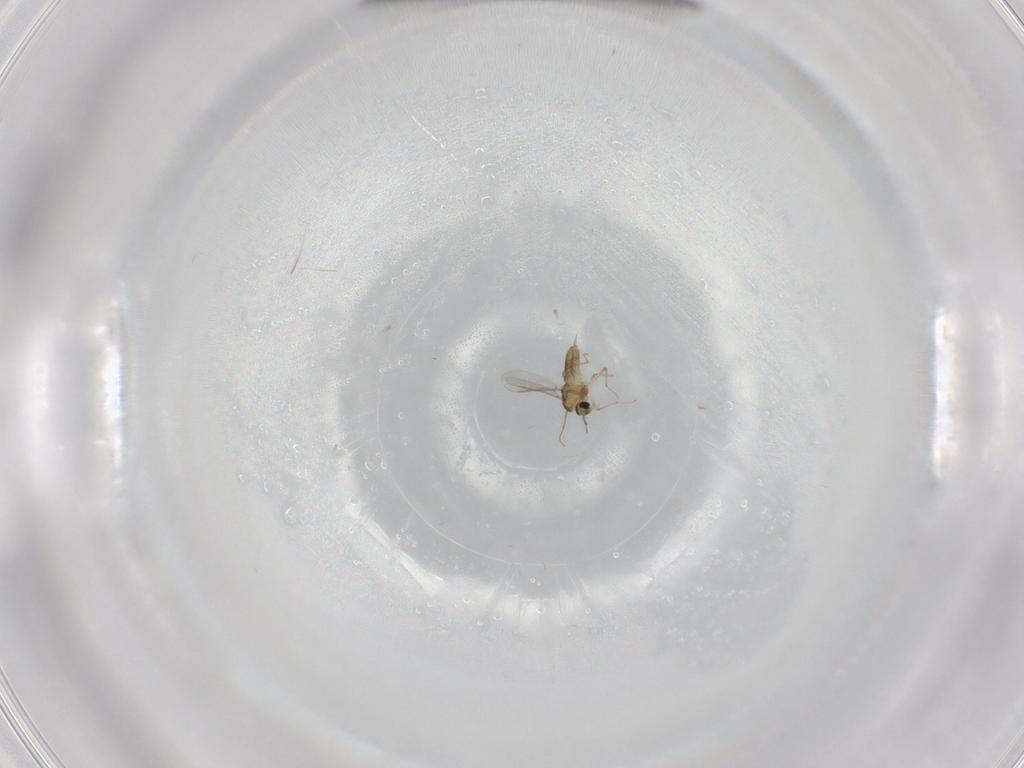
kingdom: Animalia
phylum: Arthropoda
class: Insecta
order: Diptera
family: Chironomidae
